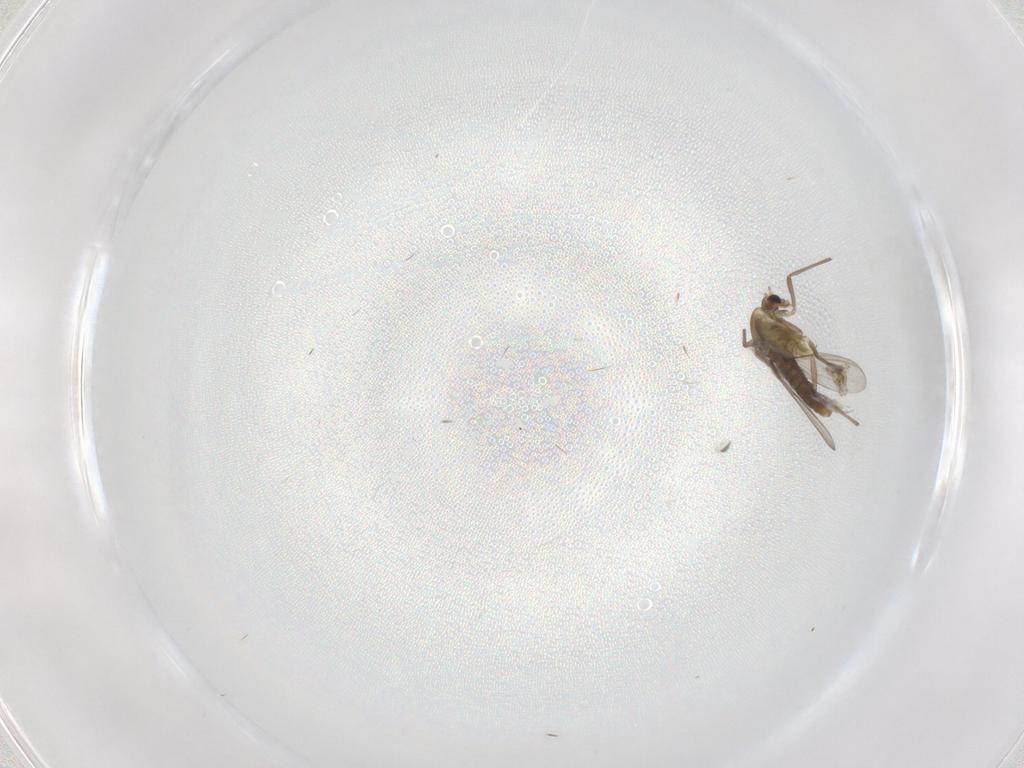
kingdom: Animalia
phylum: Arthropoda
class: Insecta
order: Diptera
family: Chironomidae
